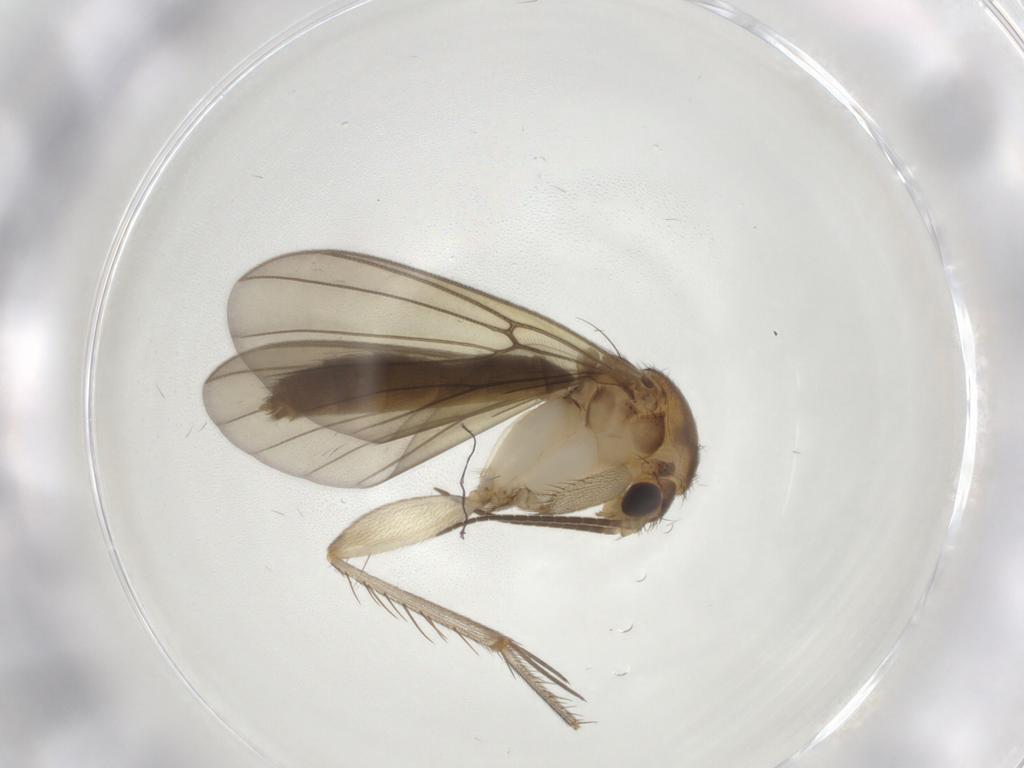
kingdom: Animalia
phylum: Arthropoda
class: Insecta
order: Diptera
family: Mycetophilidae
